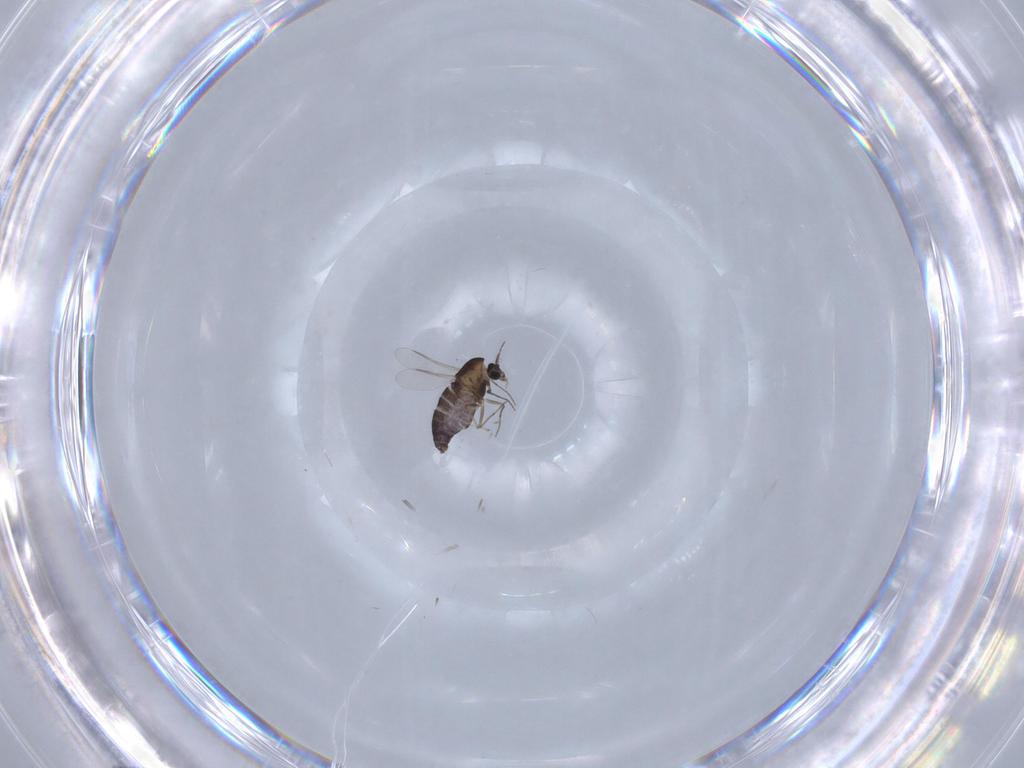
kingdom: Animalia
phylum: Arthropoda
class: Insecta
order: Diptera
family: Chironomidae
